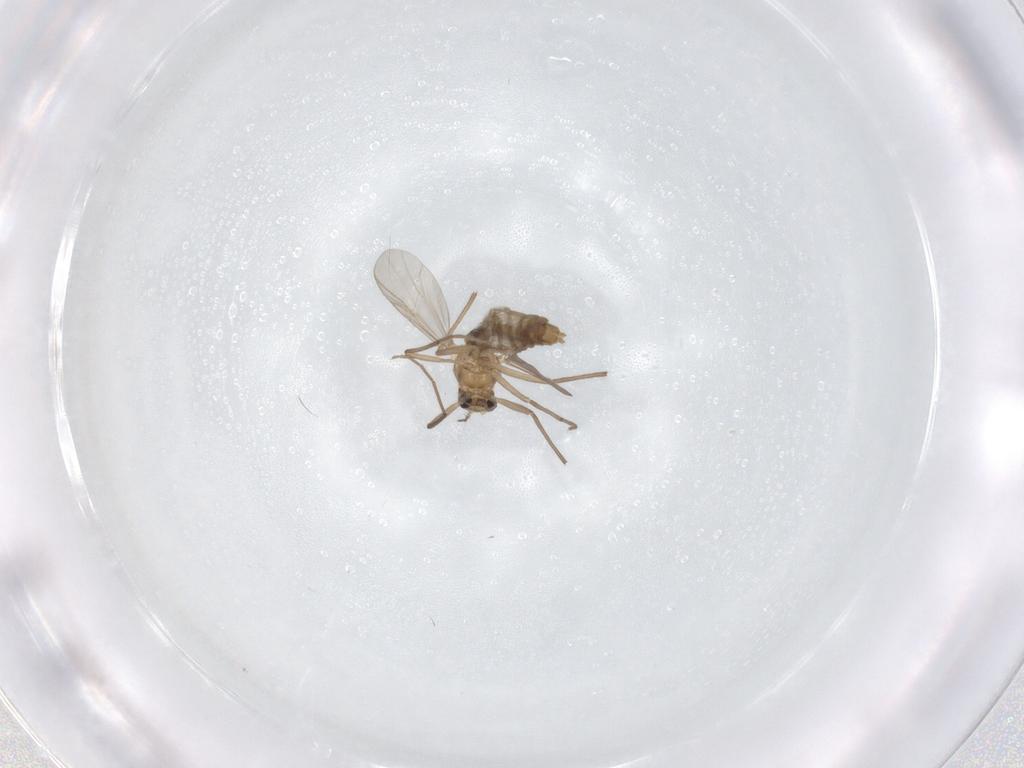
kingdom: Animalia
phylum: Arthropoda
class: Insecta
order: Diptera
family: Chironomidae
